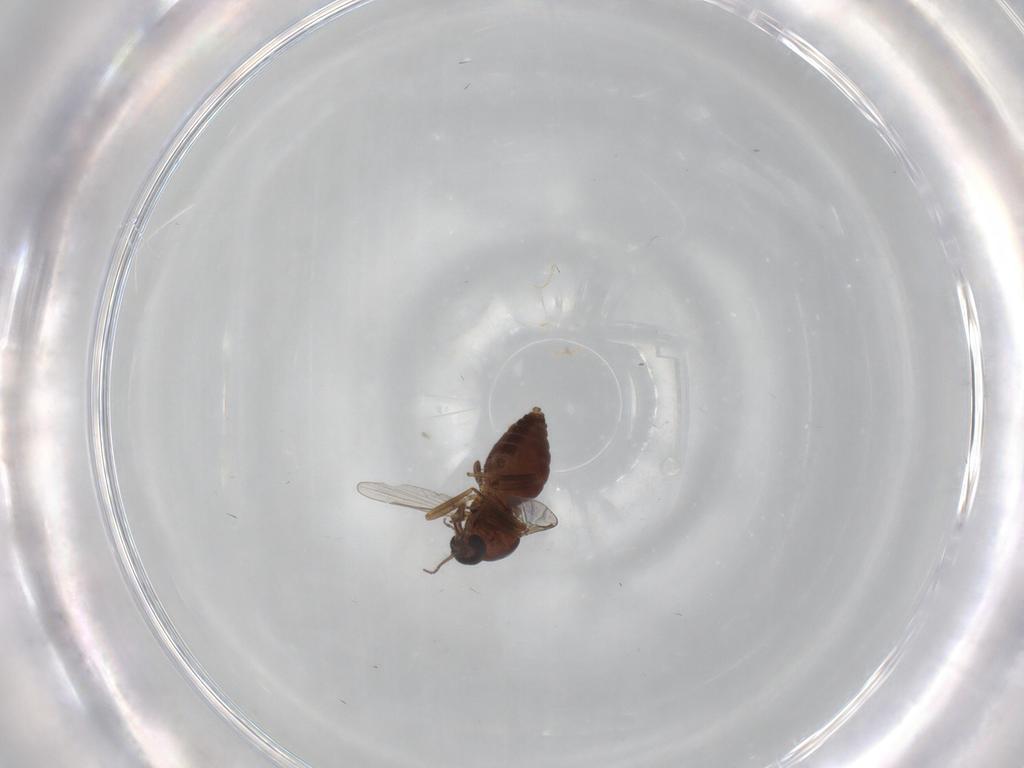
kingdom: Animalia
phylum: Arthropoda
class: Insecta
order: Diptera
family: Ceratopogonidae
